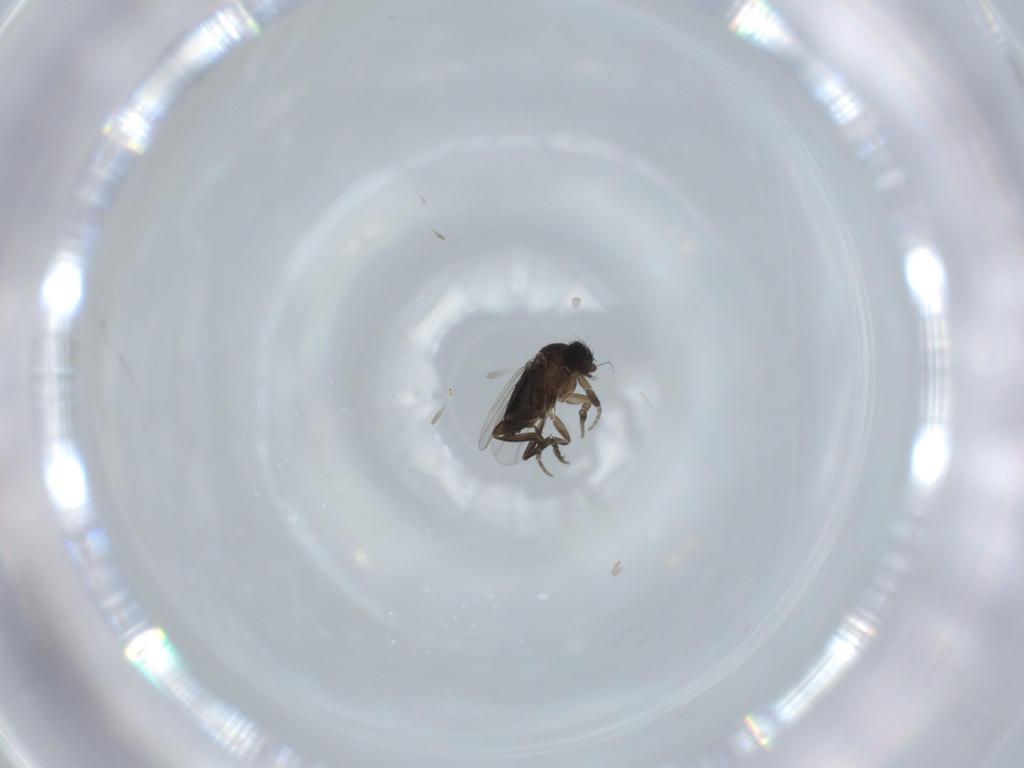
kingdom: Animalia
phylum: Arthropoda
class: Insecta
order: Diptera
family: Phoridae
